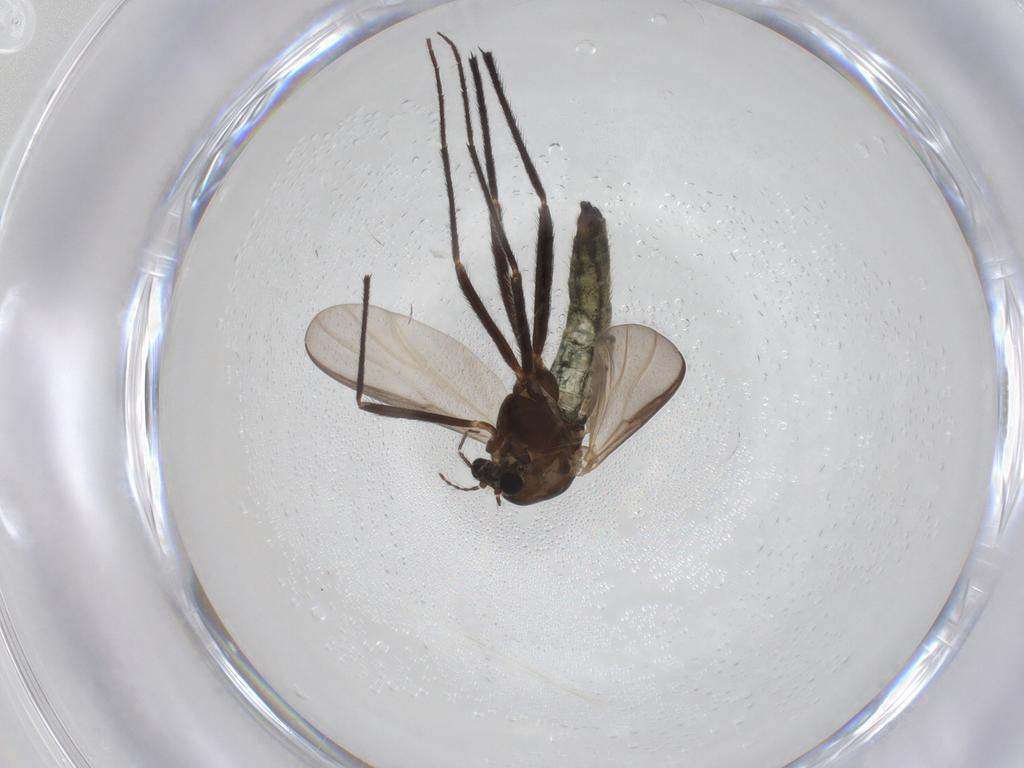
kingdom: Animalia
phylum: Arthropoda
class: Insecta
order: Diptera
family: Chironomidae
